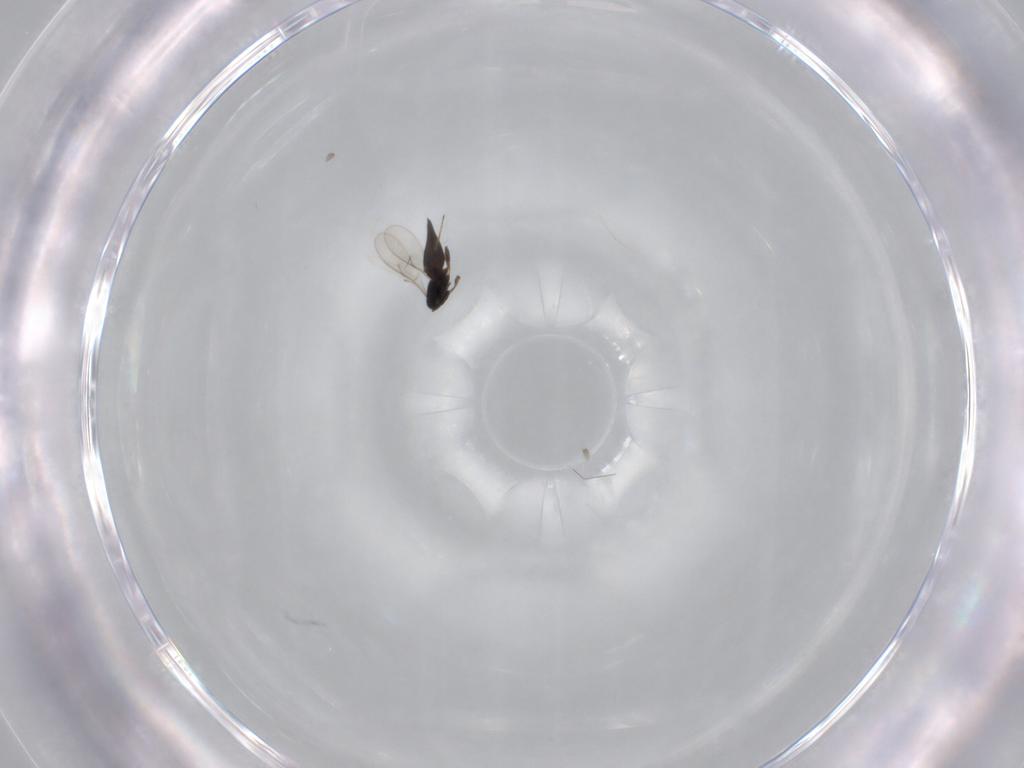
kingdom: Animalia
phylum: Arthropoda
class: Insecta
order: Hymenoptera
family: Scelionidae
